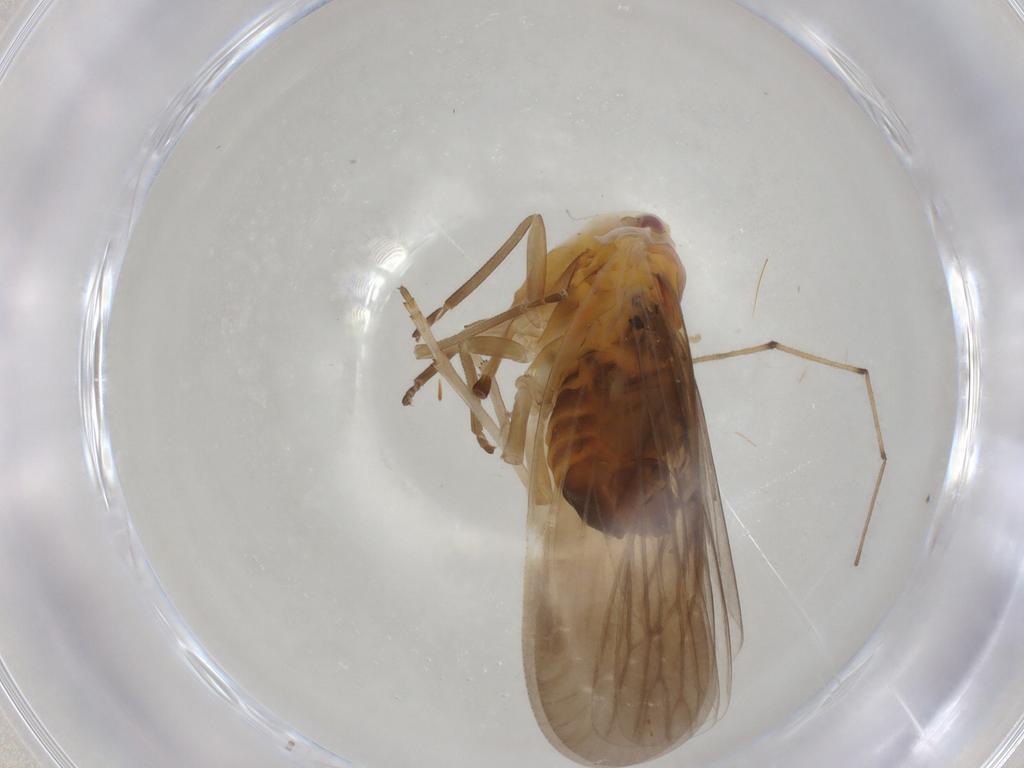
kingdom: Animalia
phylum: Arthropoda
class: Insecta
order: Hemiptera
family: Derbidae
